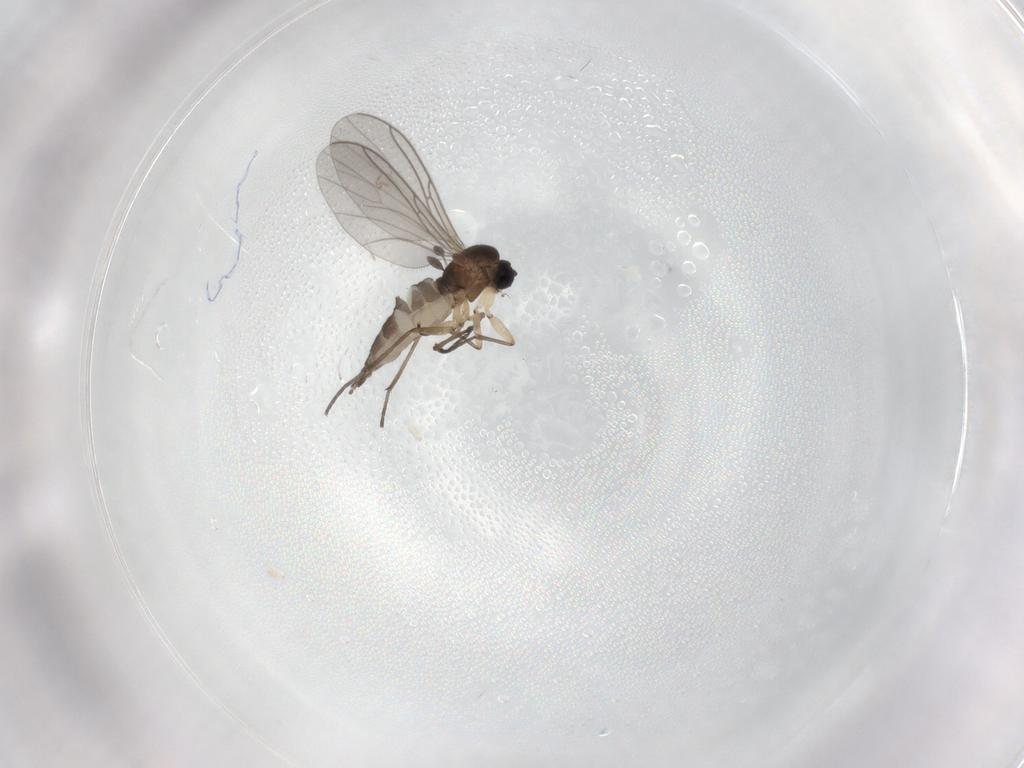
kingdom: Animalia
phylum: Arthropoda
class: Insecta
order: Diptera
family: Sciaridae
